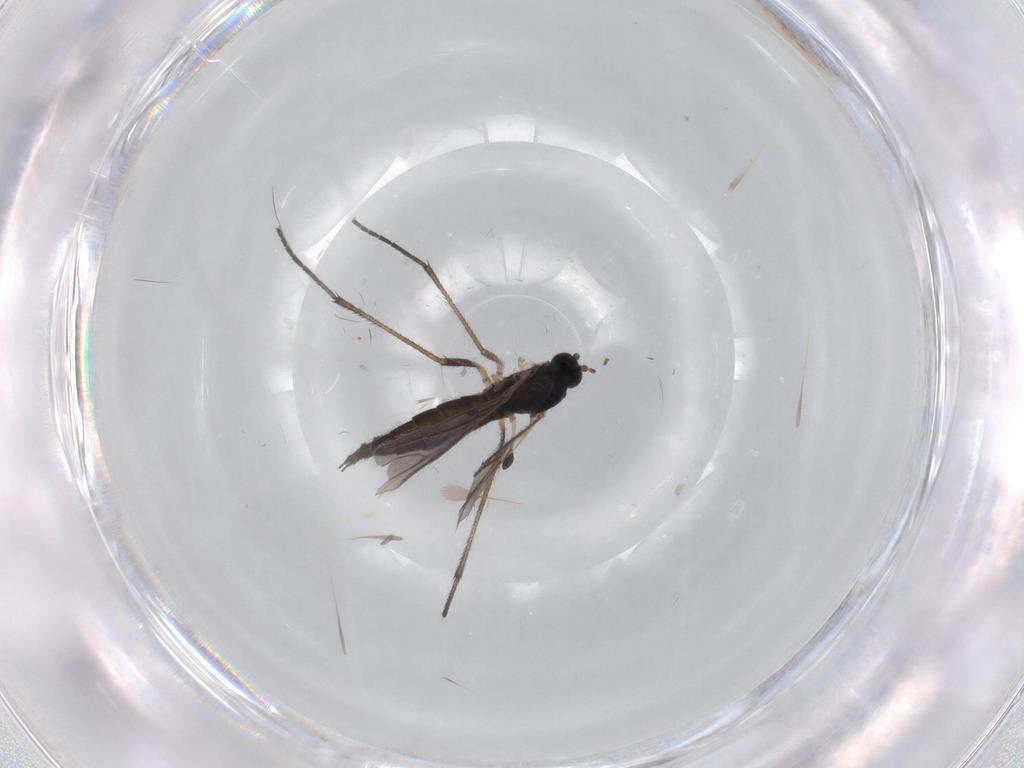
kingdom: Animalia
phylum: Arthropoda
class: Insecta
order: Diptera
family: Sciaridae
